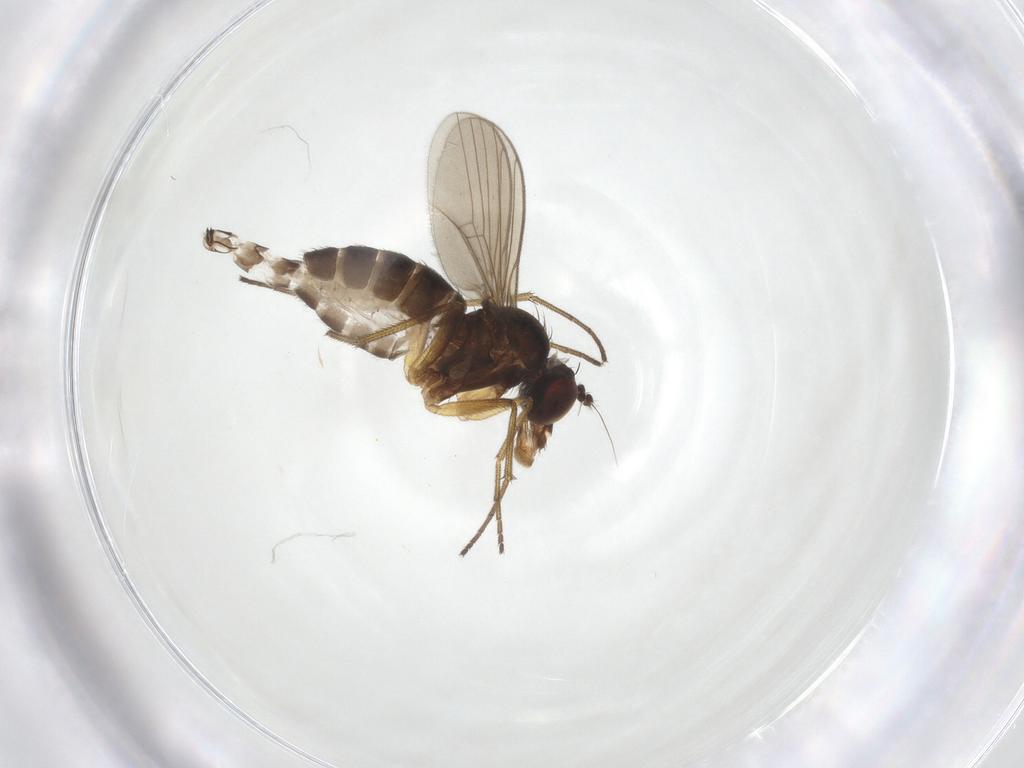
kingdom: Animalia
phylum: Arthropoda
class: Insecta
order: Diptera
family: Dolichopodidae
